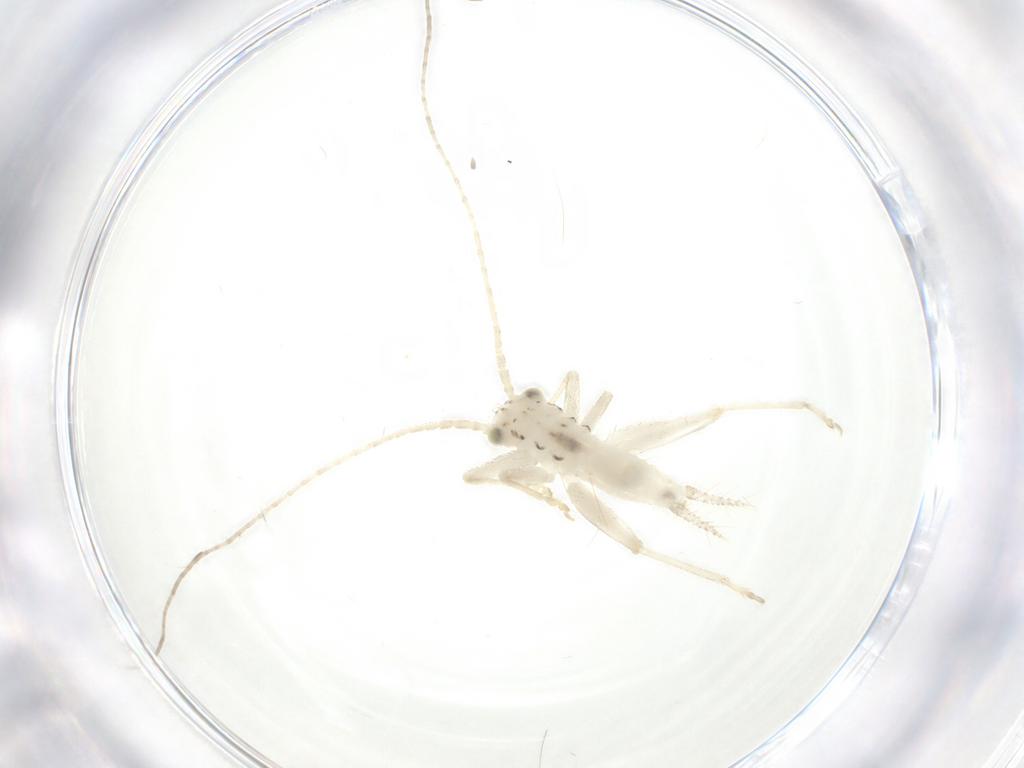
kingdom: Animalia
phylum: Arthropoda
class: Insecta
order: Orthoptera
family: Trigonidiidae
